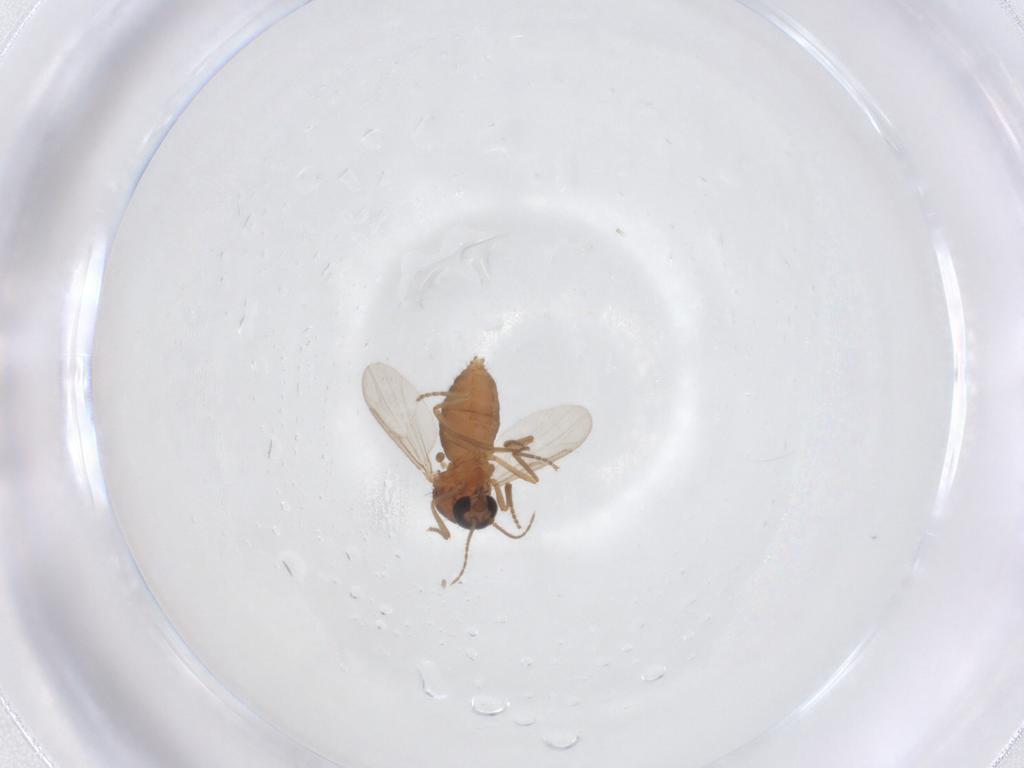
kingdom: Animalia
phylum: Arthropoda
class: Insecta
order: Diptera
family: Ceratopogonidae
